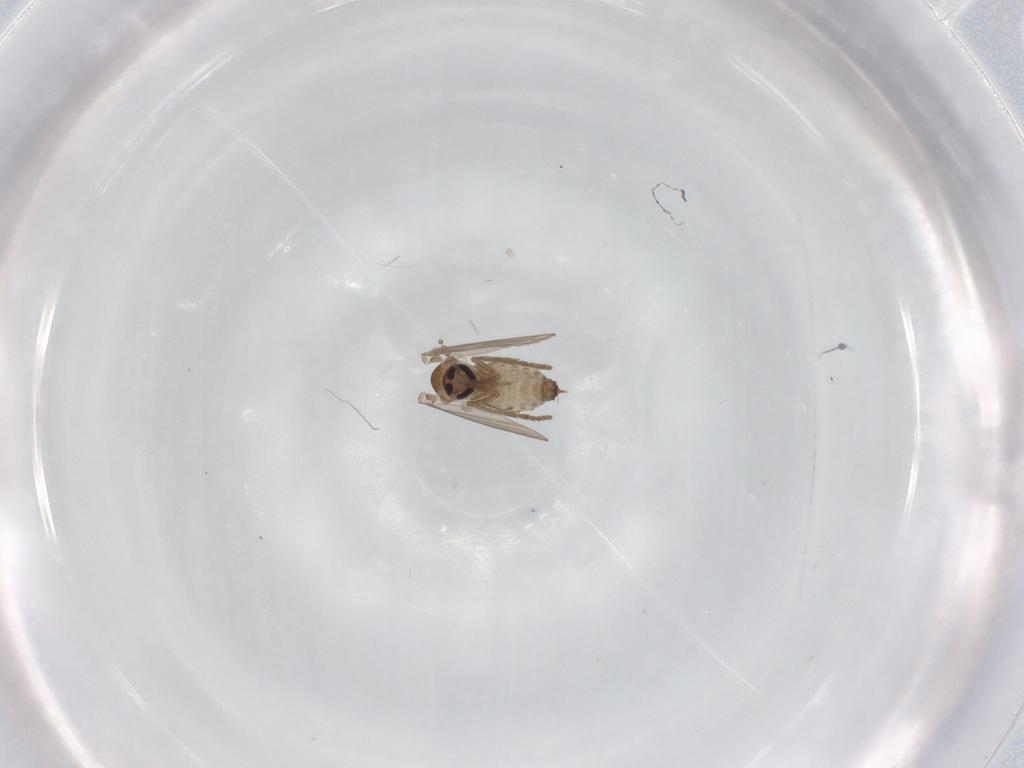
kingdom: Animalia
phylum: Arthropoda
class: Insecta
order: Diptera
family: Psychodidae
